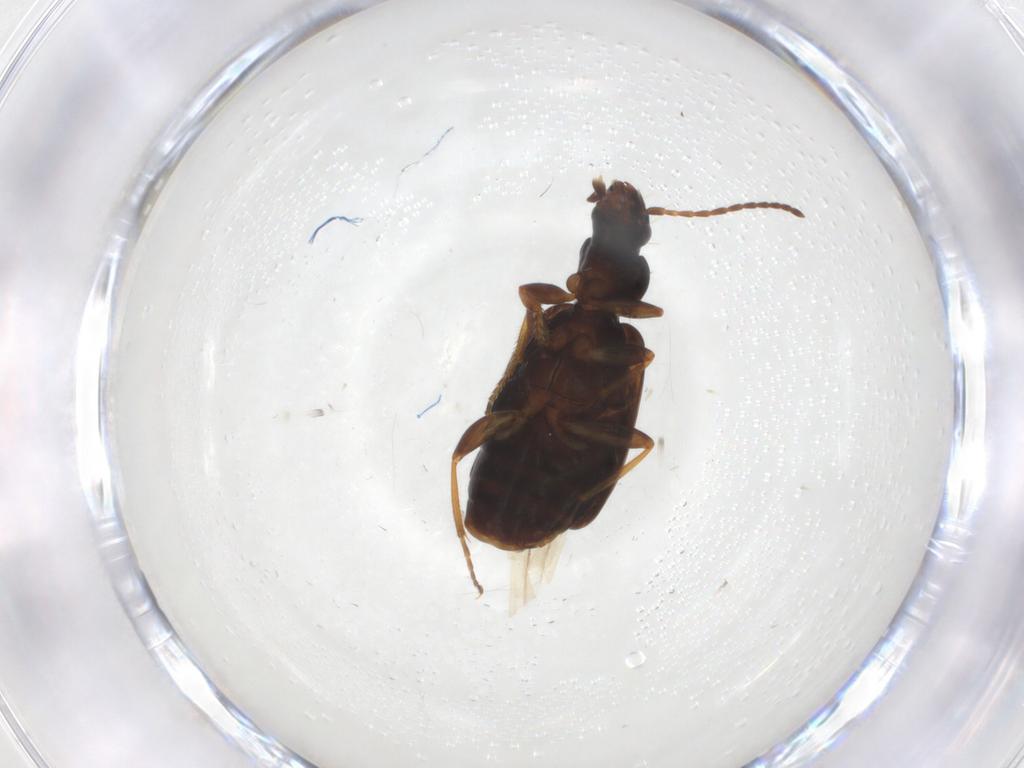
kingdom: Animalia
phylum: Arthropoda
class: Insecta
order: Coleoptera
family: Carabidae
